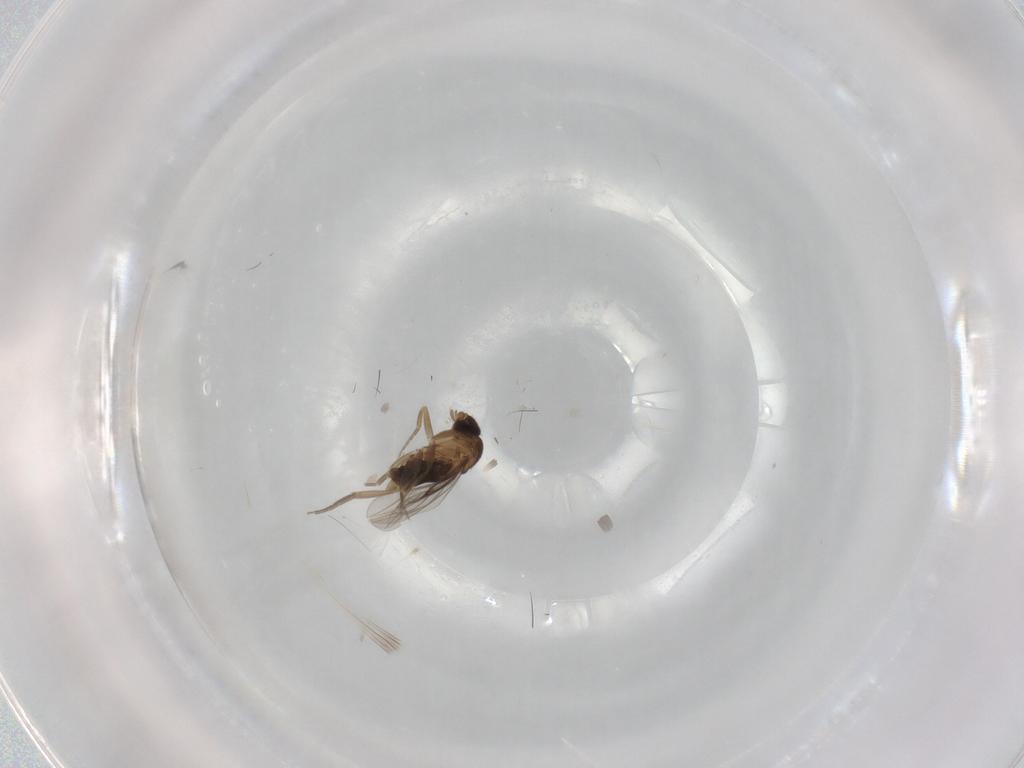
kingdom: Animalia
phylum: Arthropoda
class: Insecta
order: Diptera
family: Phoridae
